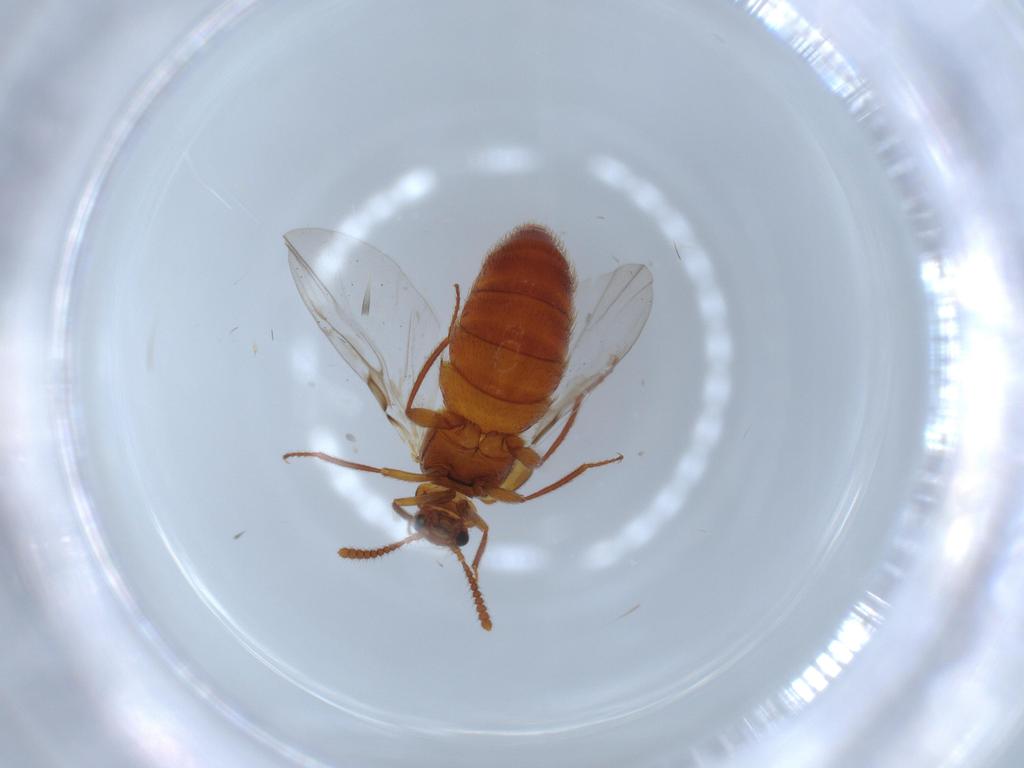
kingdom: Animalia
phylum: Arthropoda
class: Insecta
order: Coleoptera
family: Staphylinidae
